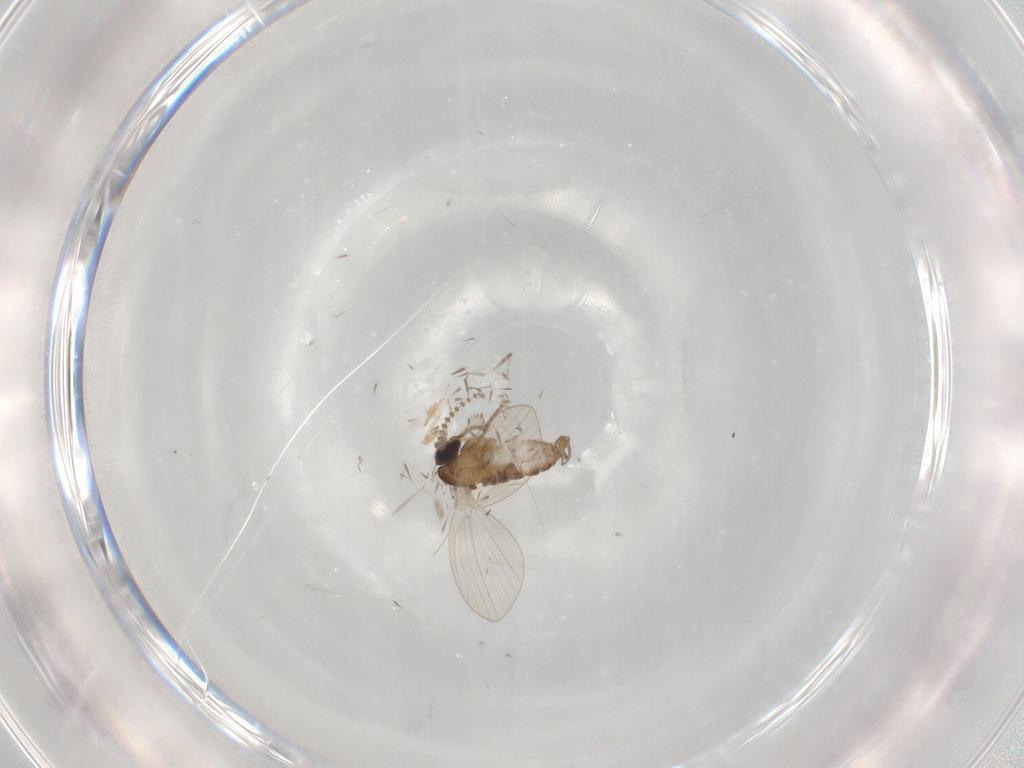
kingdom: Animalia
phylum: Arthropoda
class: Insecta
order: Diptera
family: Psychodidae
